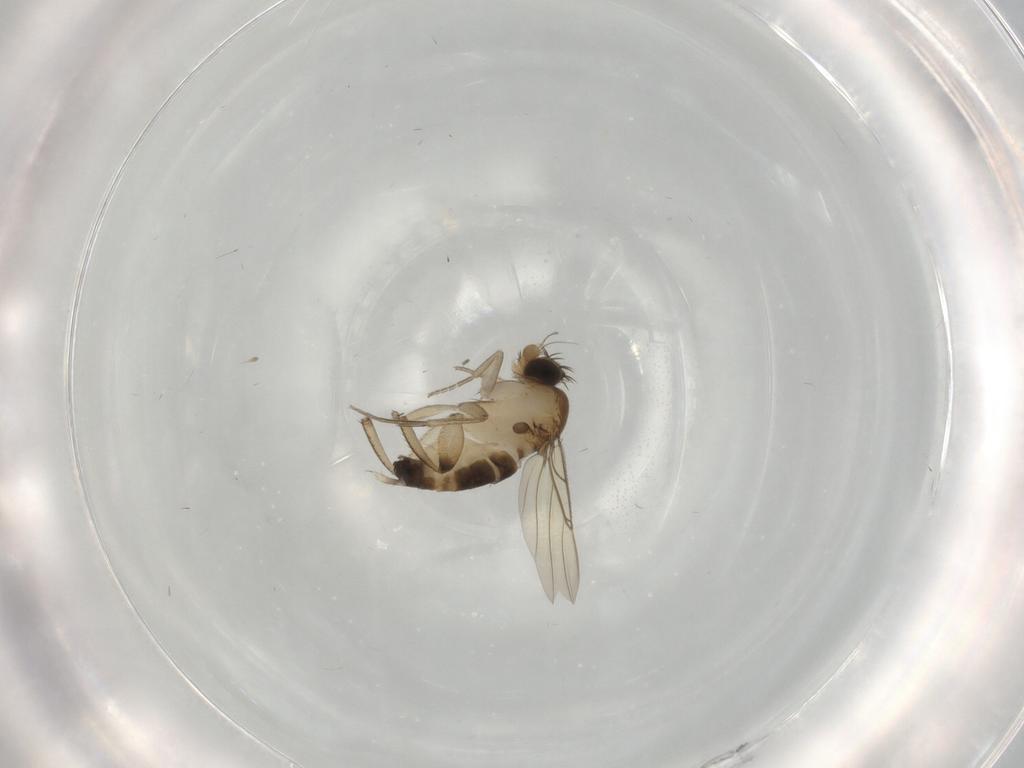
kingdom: Animalia
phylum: Arthropoda
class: Insecta
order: Diptera
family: Phoridae
